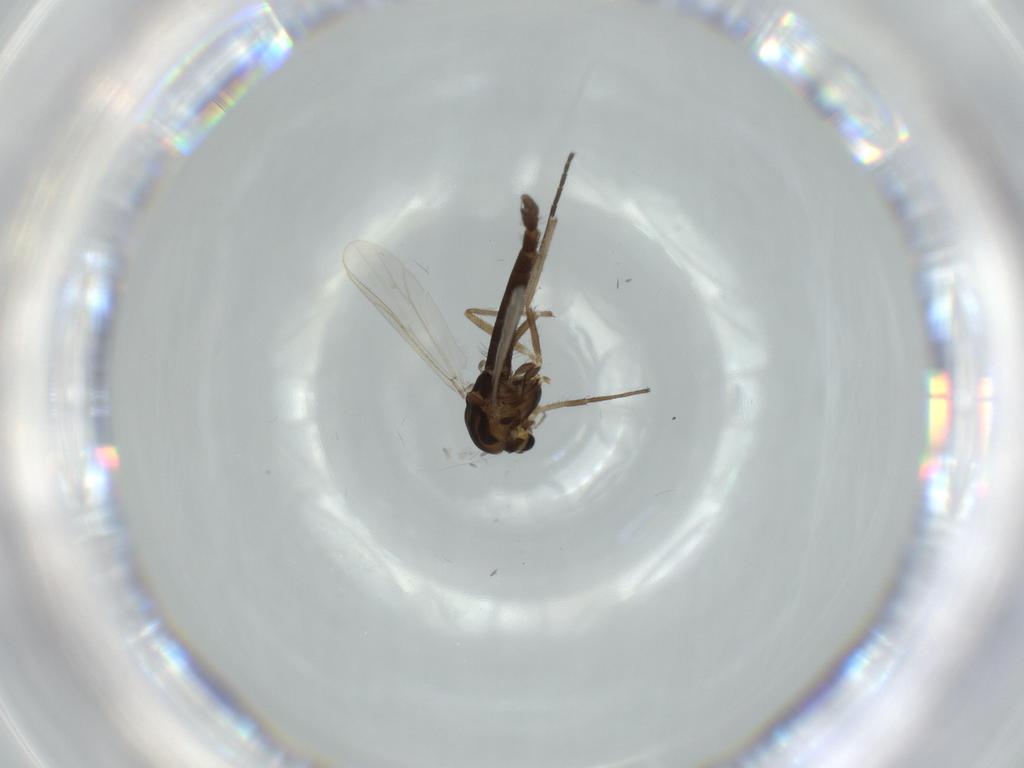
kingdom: Animalia
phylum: Arthropoda
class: Insecta
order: Diptera
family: Chironomidae
